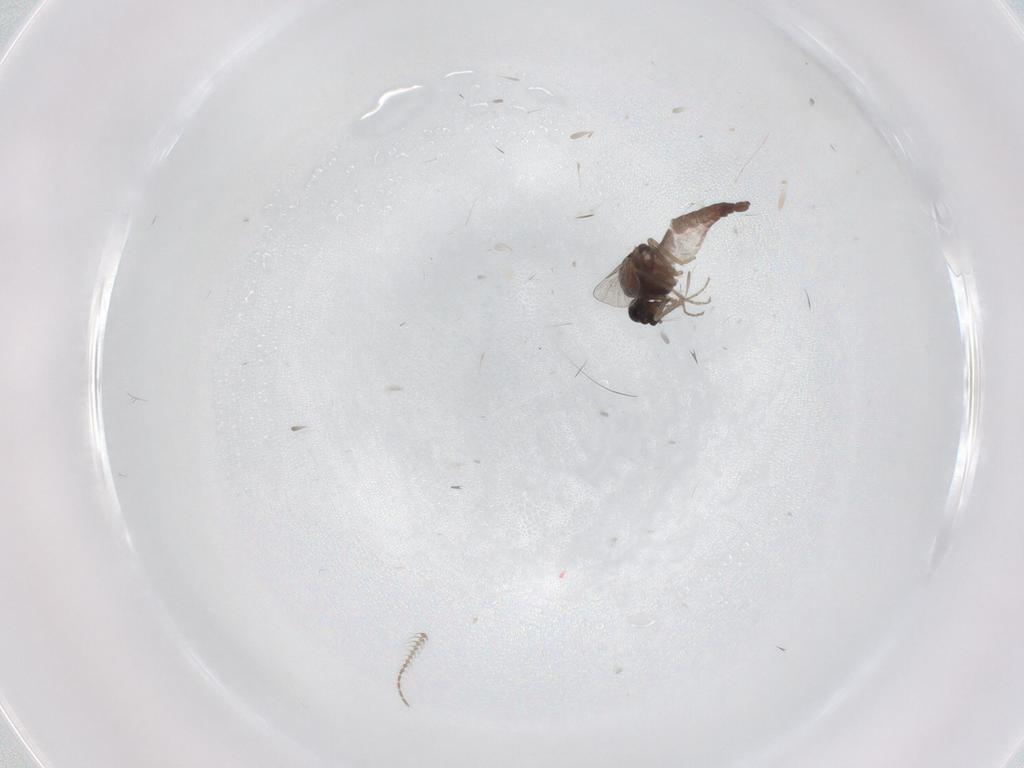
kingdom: Animalia
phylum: Arthropoda
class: Insecta
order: Diptera
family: Ceratopogonidae
